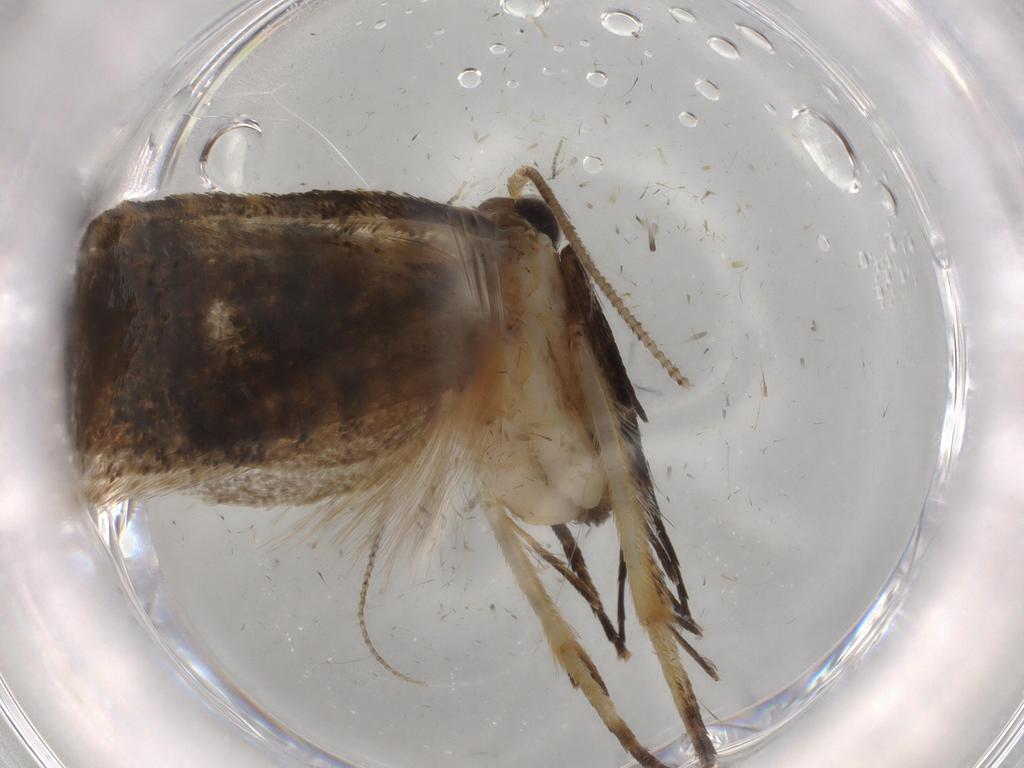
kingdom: Animalia
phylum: Arthropoda
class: Insecta
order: Lepidoptera
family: Tineidae
